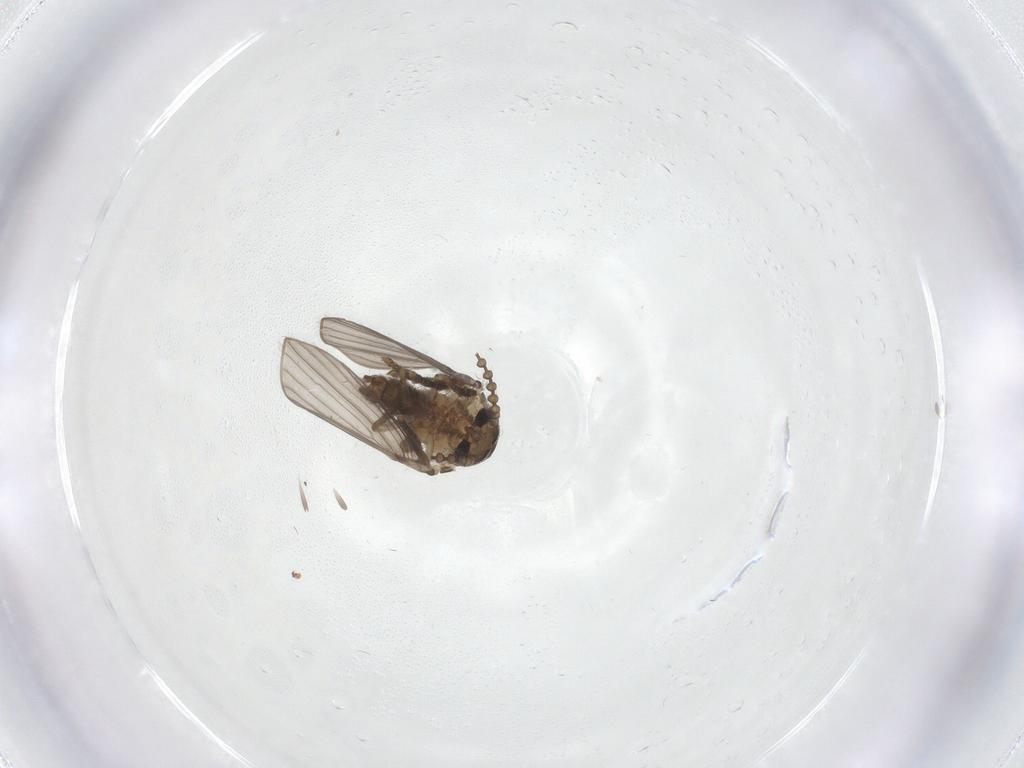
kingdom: Animalia
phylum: Arthropoda
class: Insecta
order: Diptera
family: Psychodidae
